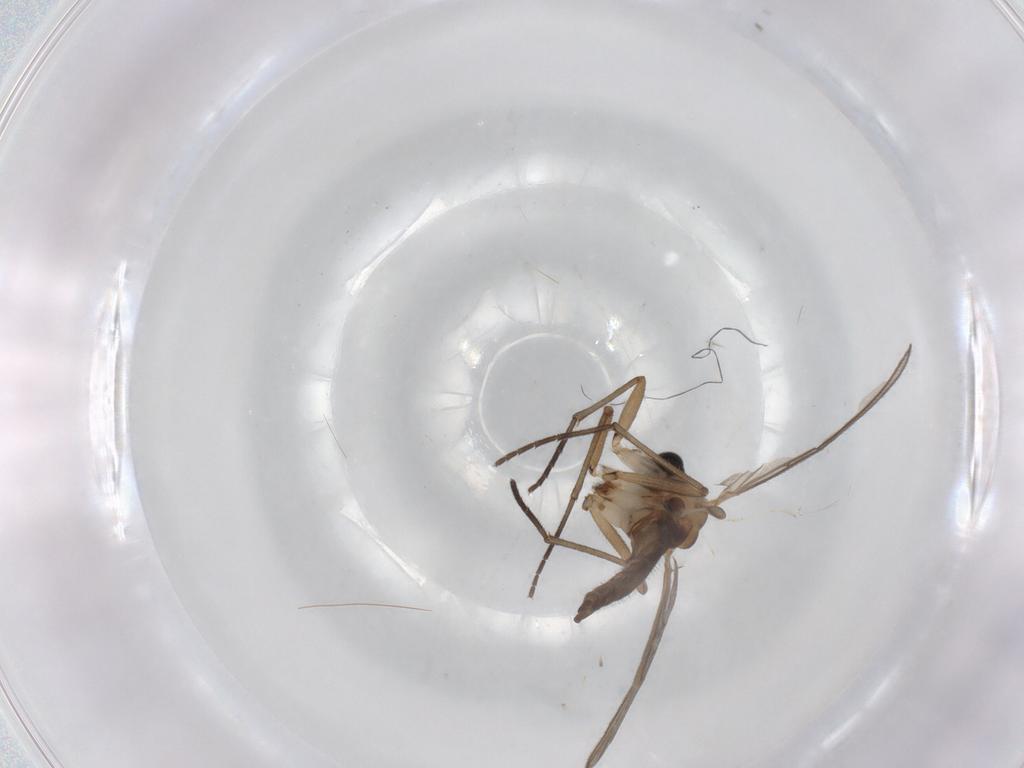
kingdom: Animalia
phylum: Arthropoda
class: Insecta
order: Diptera
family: Sciaridae
